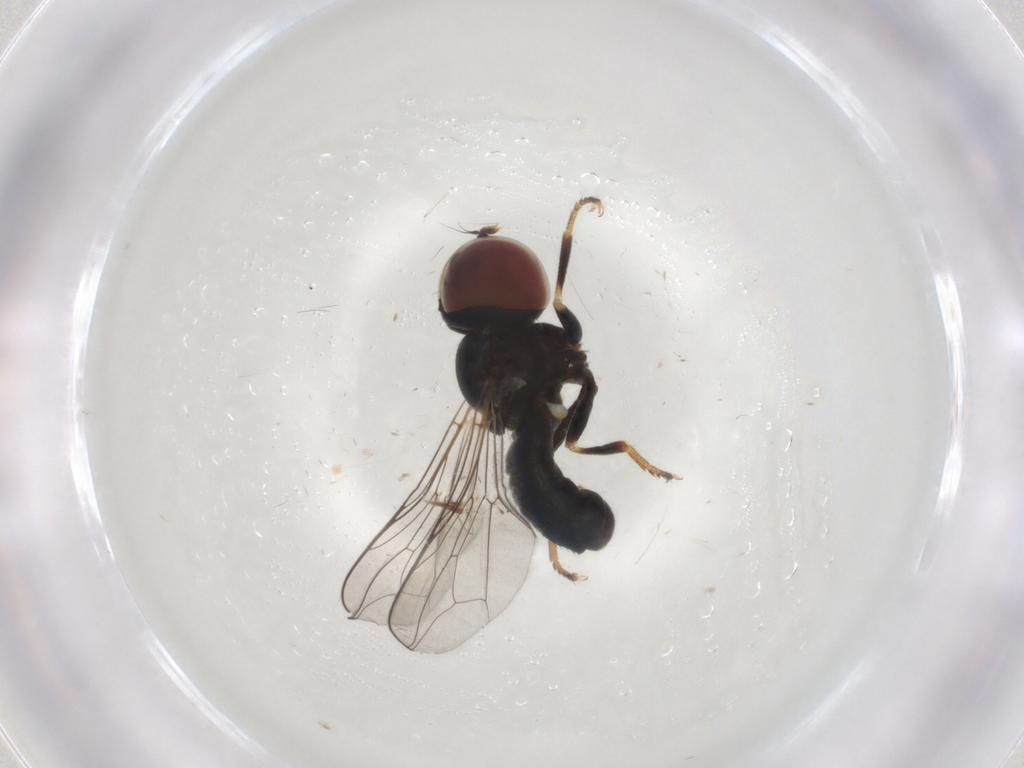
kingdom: Animalia
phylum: Arthropoda
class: Insecta
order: Diptera
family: Pipunculidae
